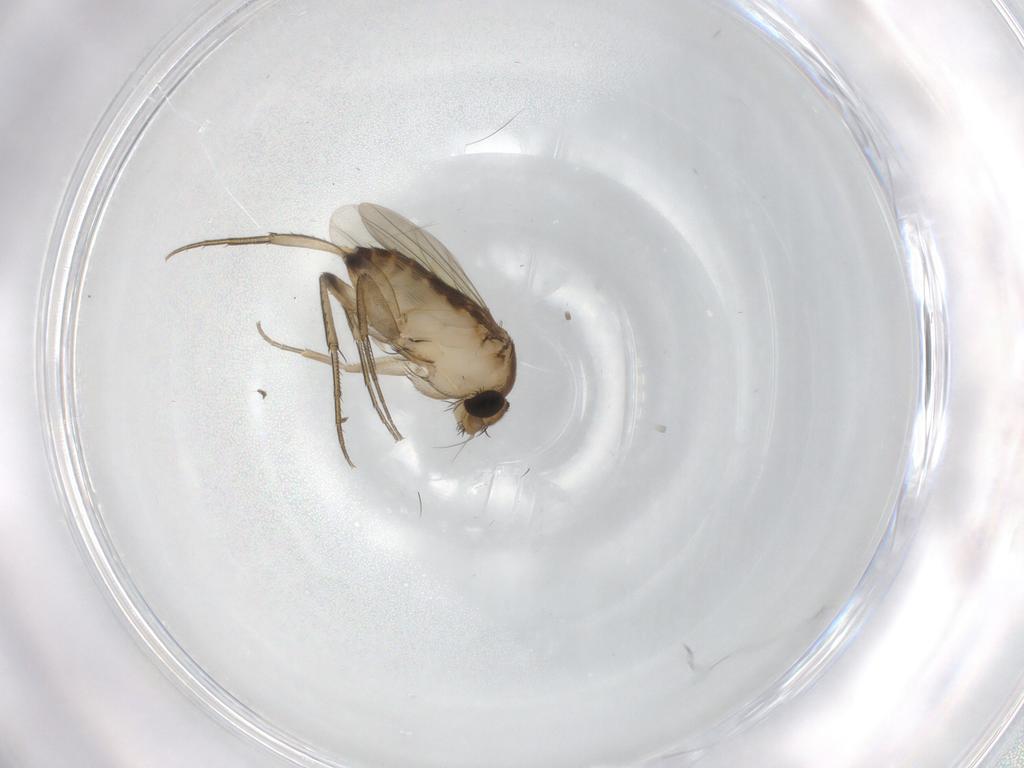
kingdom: Animalia
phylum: Arthropoda
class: Insecta
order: Diptera
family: Phoridae
